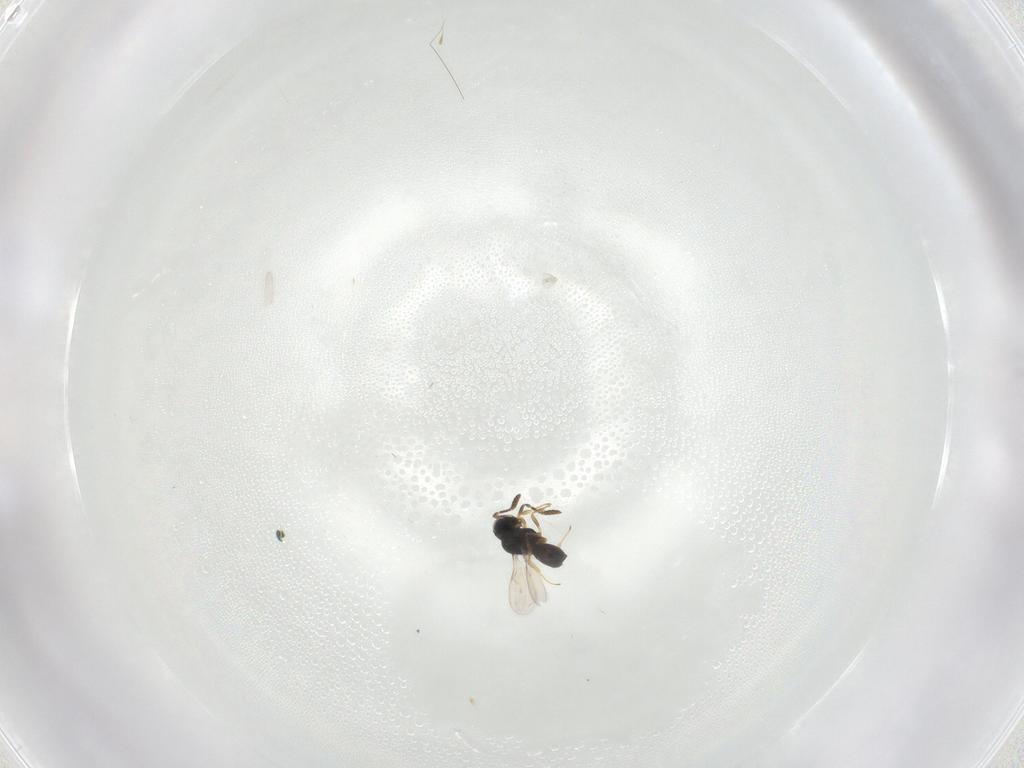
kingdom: Animalia
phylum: Arthropoda
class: Insecta
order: Hymenoptera
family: Scelionidae
